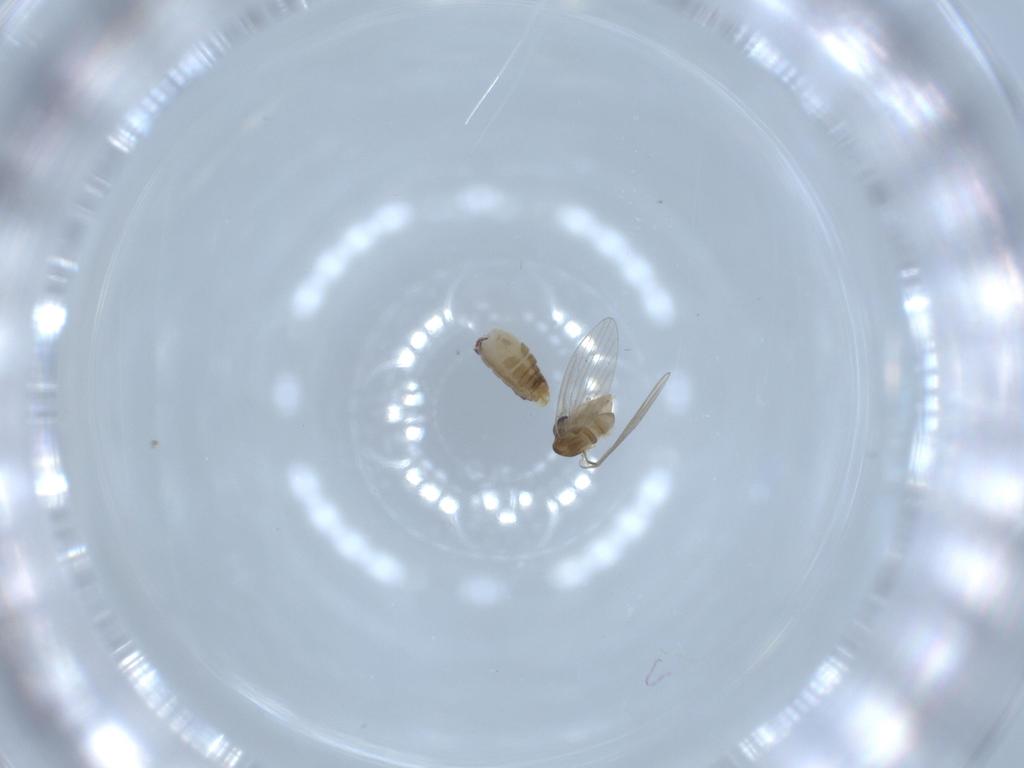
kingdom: Animalia
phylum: Arthropoda
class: Insecta
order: Diptera
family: Psychodidae
